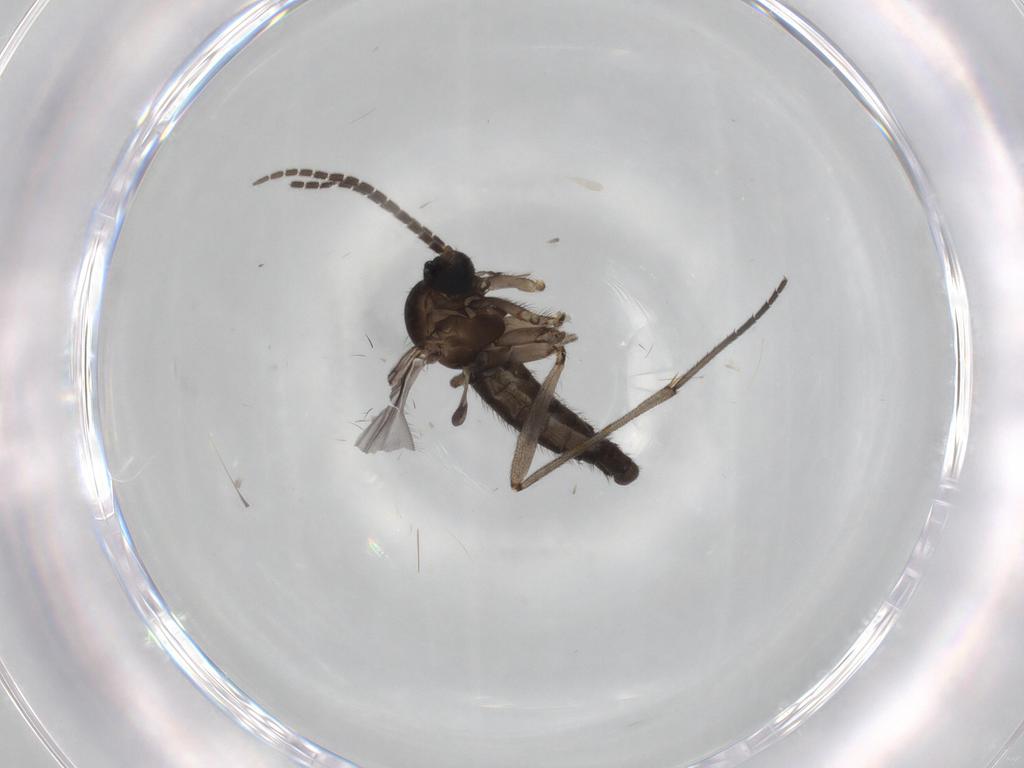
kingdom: Animalia
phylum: Arthropoda
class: Insecta
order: Diptera
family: Sciaridae
